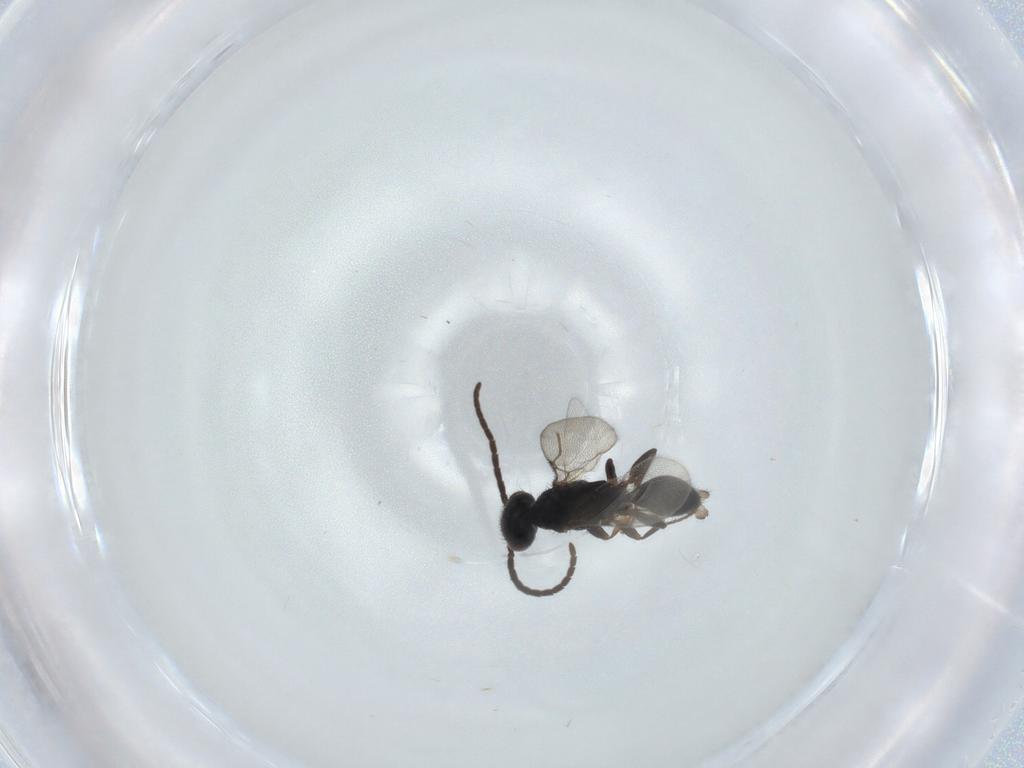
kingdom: Animalia
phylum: Arthropoda
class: Insecta
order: Hymenoptera
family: Bethylidae
